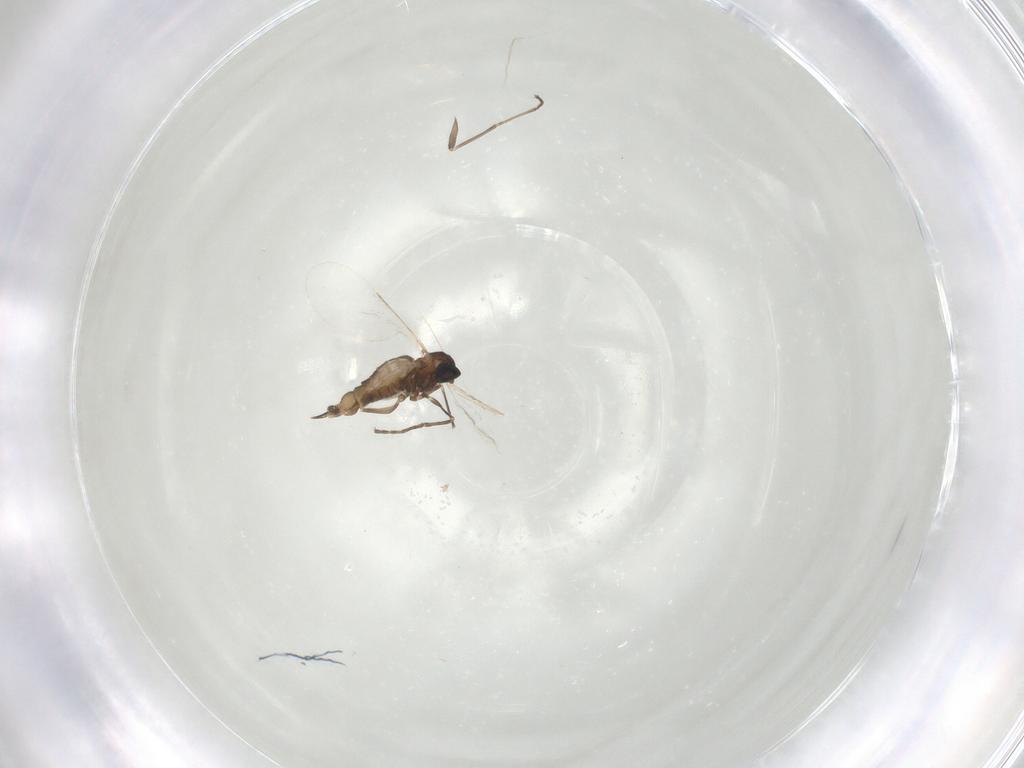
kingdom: Animalia
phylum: Arthropoda
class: Insecta
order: Diptera
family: Cecidomyiidae
